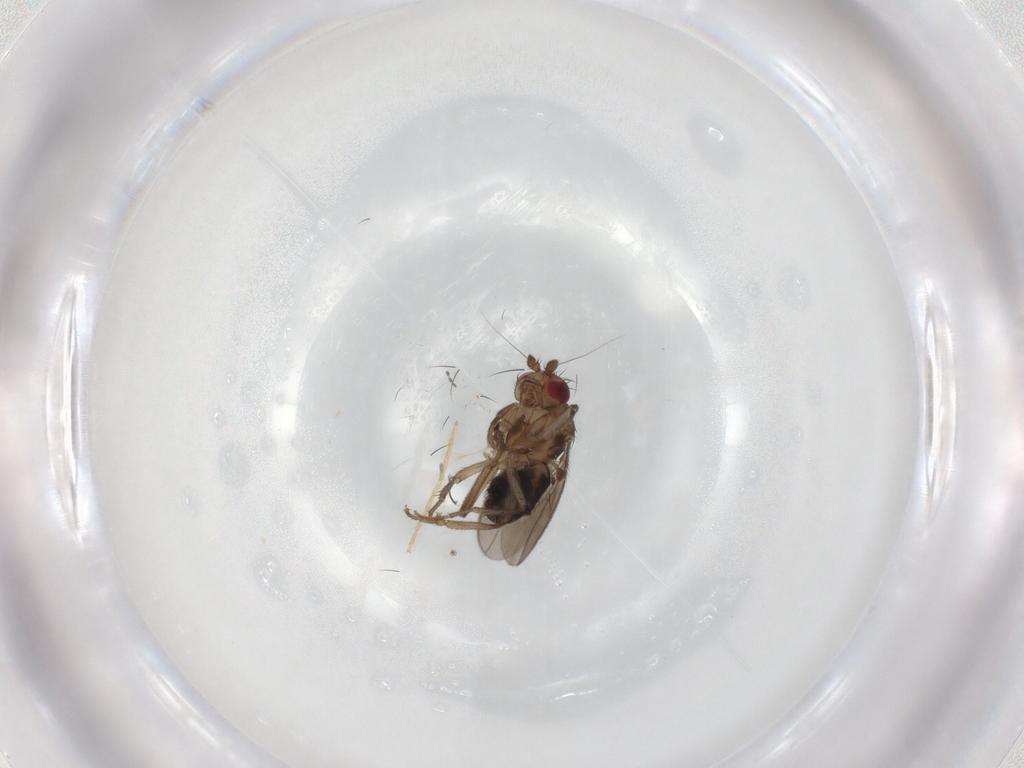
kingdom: Animalia
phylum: Arthropoda
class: Insecta
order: Diptera
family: Sphaeroceridae
